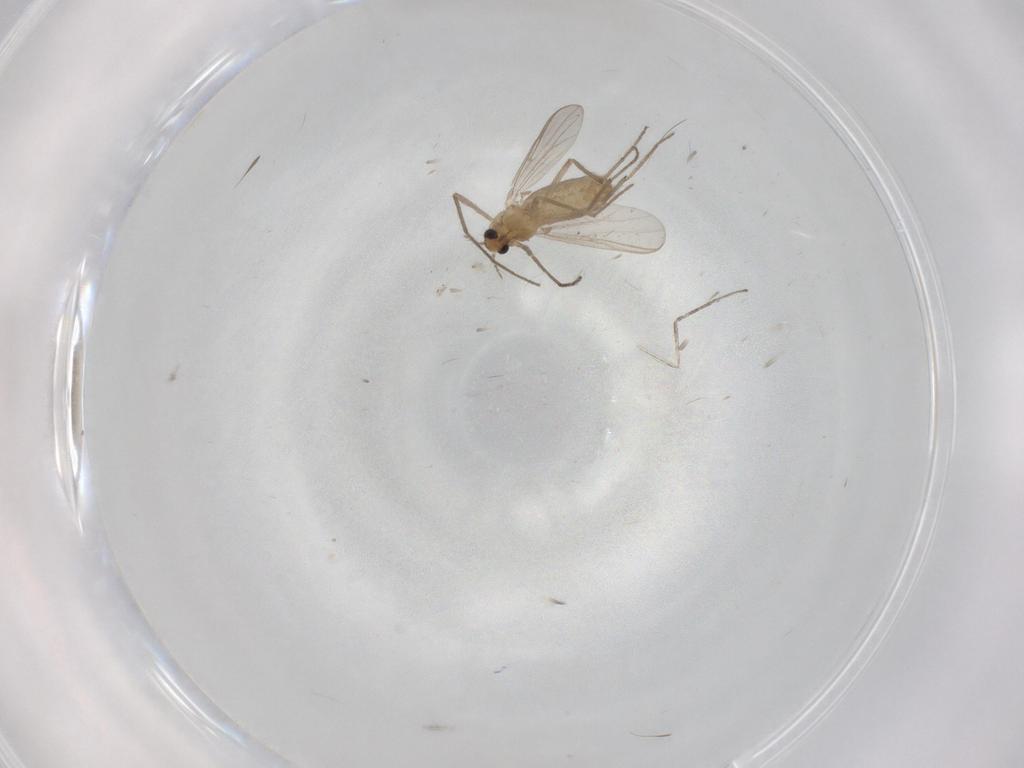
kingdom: Animalia
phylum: Arthropoda
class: Insecta
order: Diptera
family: Chironomidae
